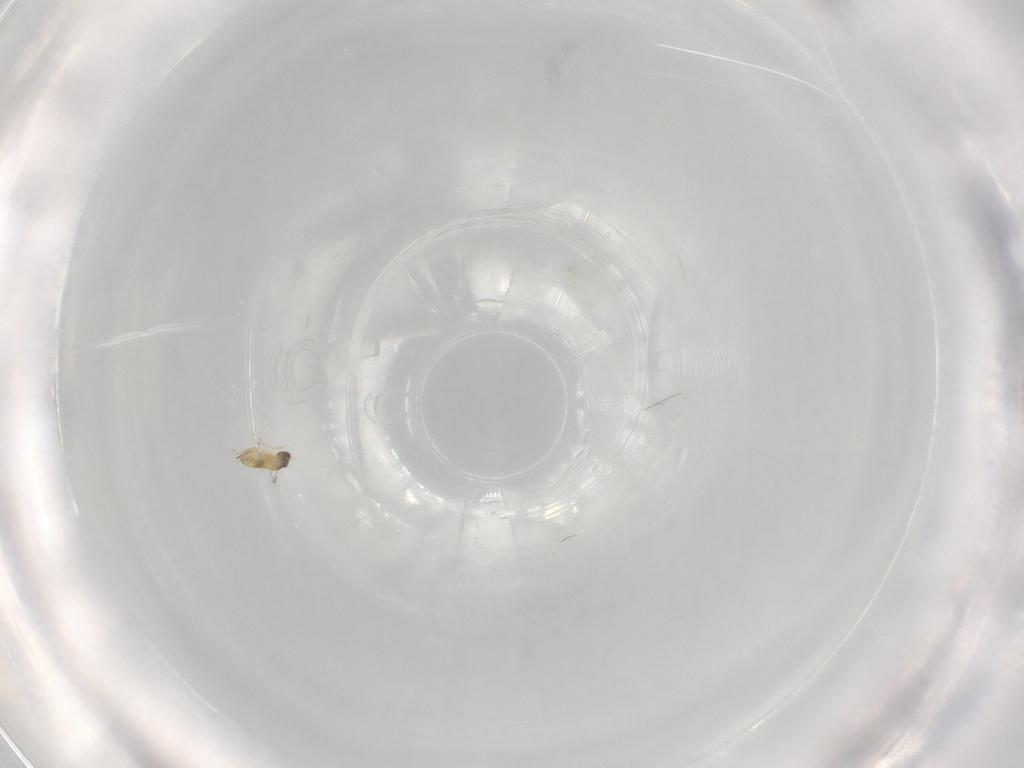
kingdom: Animalia
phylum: Arthropoda
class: Insecta
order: Hymenoptera
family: Mymaridae
